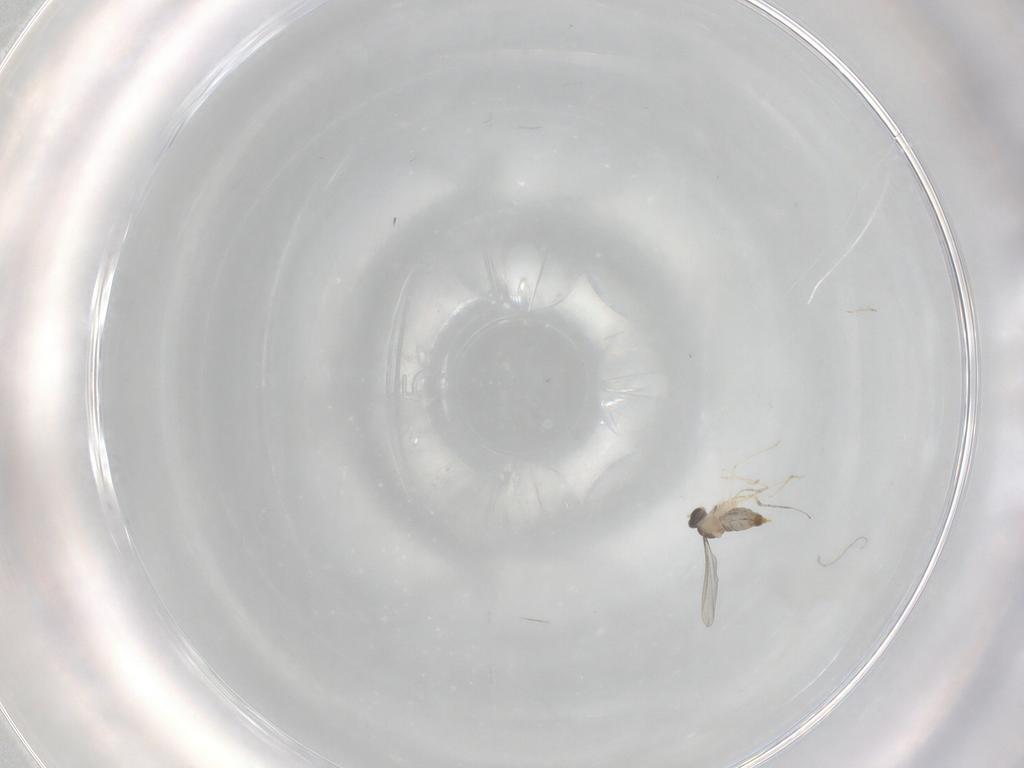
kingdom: Animalia
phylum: Arthropoda
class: Insecta
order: Diptera
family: Cecidomyiidae
